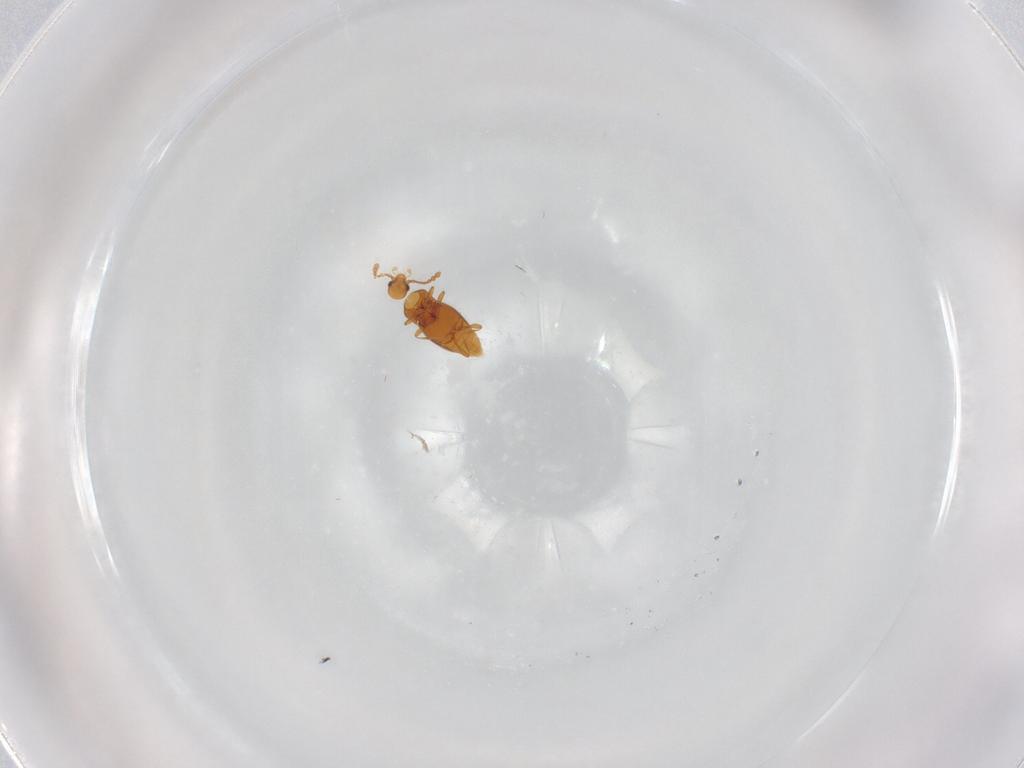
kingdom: Animalia
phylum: Arthropoda
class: Insecta
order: Coleoptera
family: Staphylinidae
